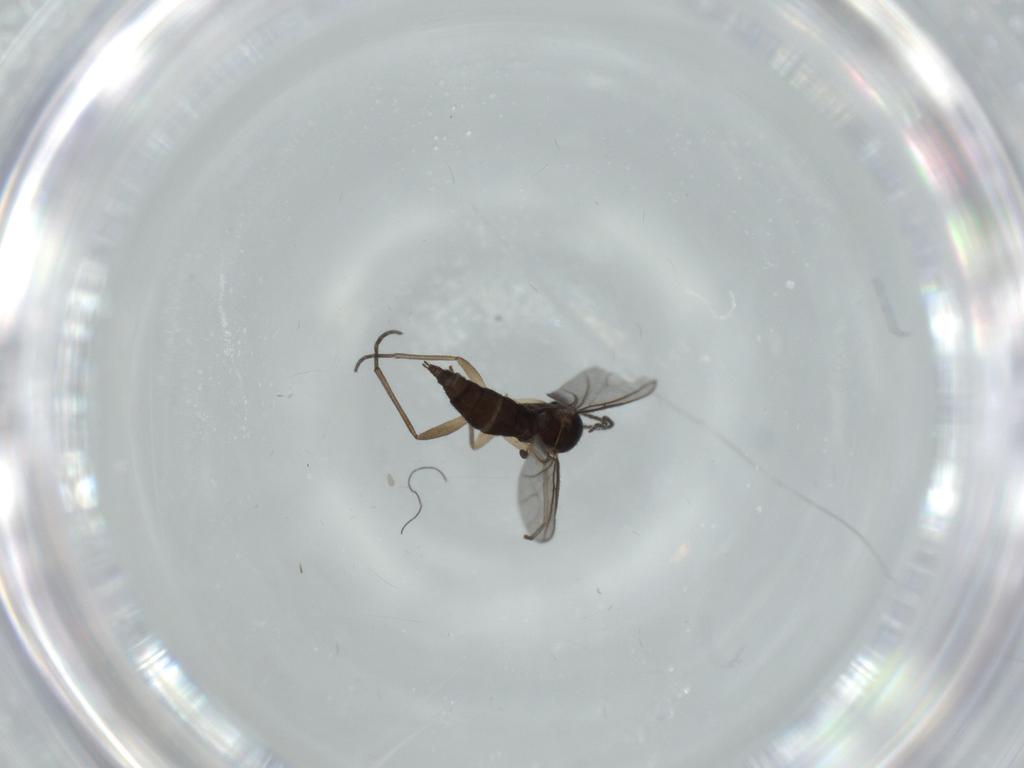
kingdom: Animalia
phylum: Arthropoda
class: Insecta
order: Diptera
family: Sciaridae
